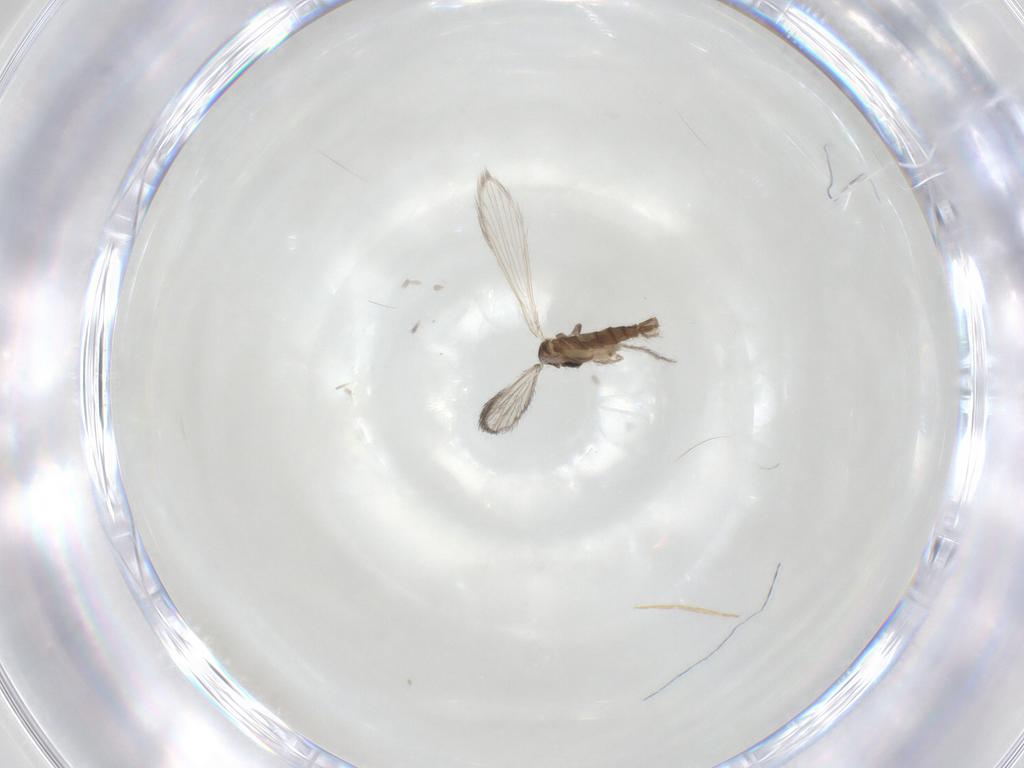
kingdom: Animalia
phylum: Arthropoda
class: Insecta
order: Diptera
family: Psychodidae
